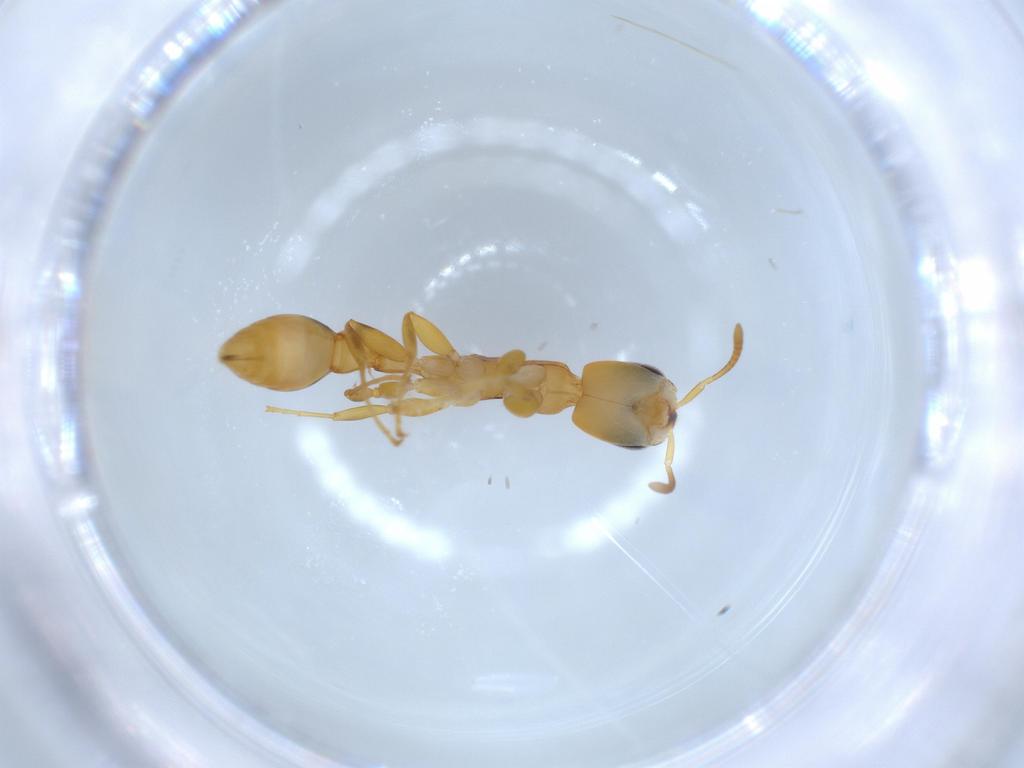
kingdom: Animalia
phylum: Arthropoda
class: Insecta
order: Hymenoptera
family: Formicidae
